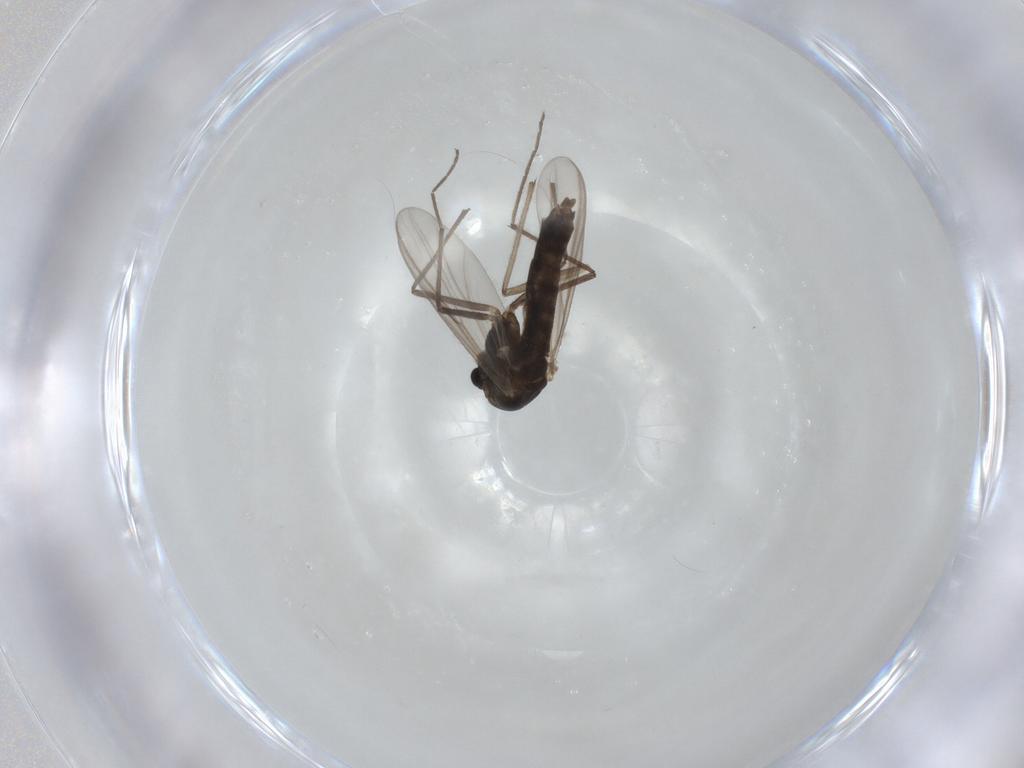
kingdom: Animalia
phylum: Arthropoda
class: Insecta
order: Diptera
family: Chironomidae
